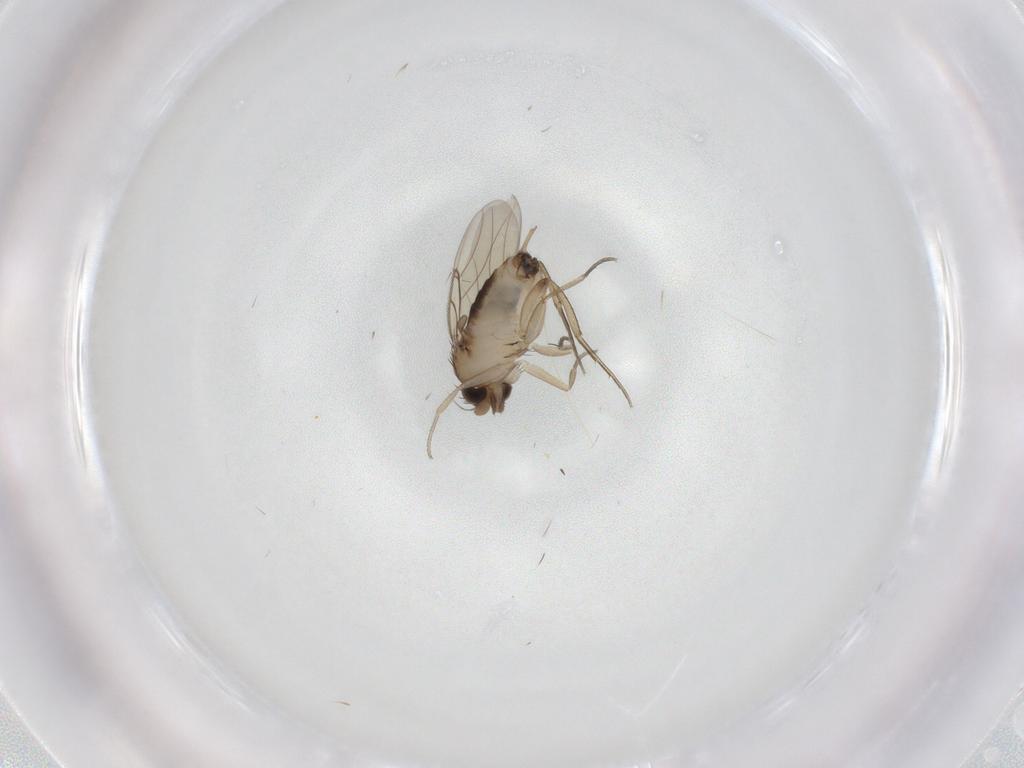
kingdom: Animalia
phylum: Arthropoda
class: Insecta
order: Diptera
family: Phoridae
